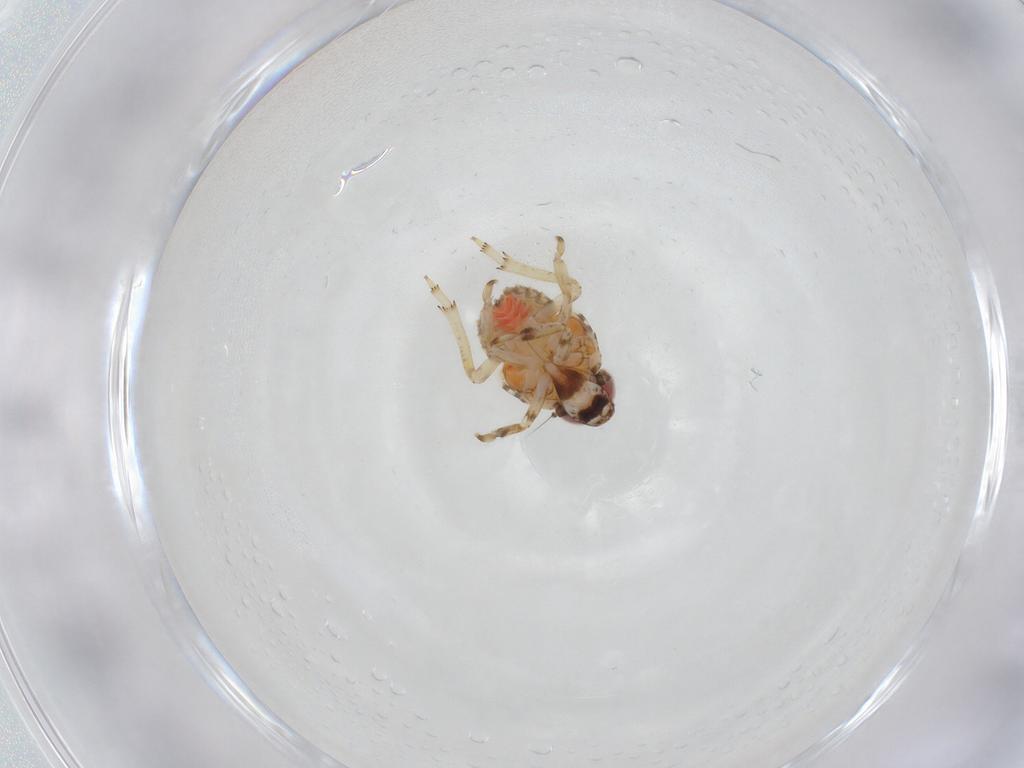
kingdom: Animalia
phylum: Arthropoda
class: Insecta
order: Hemiptera
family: Issidae
